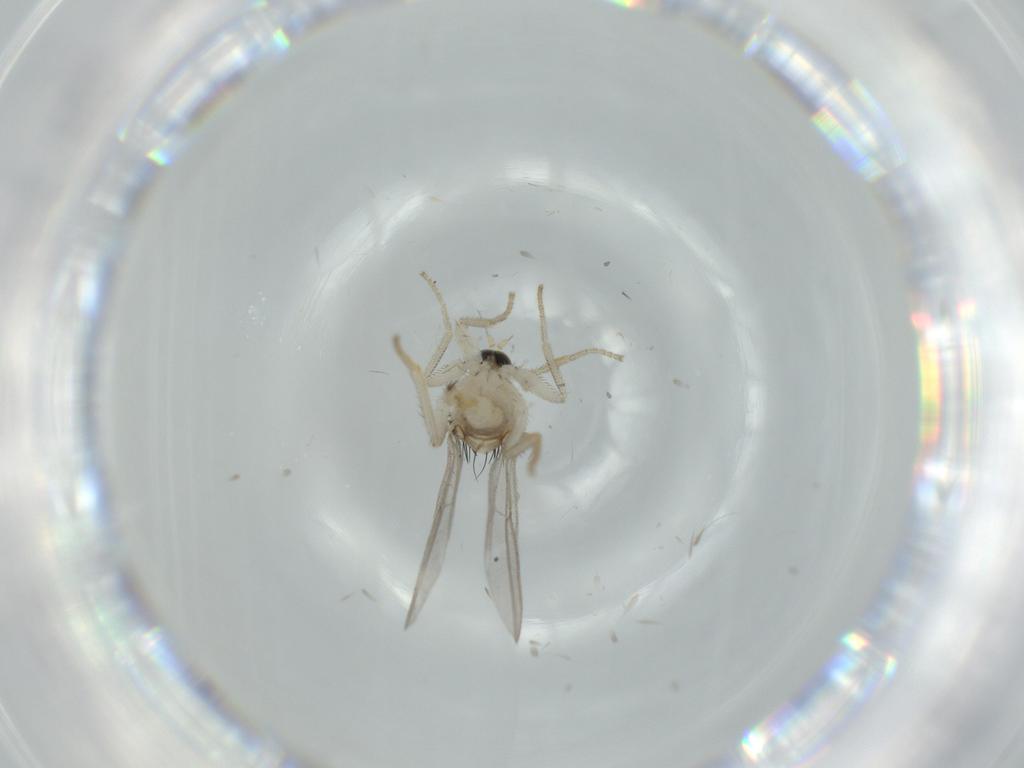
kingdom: Animalia
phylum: Arthropoda
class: Insecta
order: Diptera
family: Hybotidae
